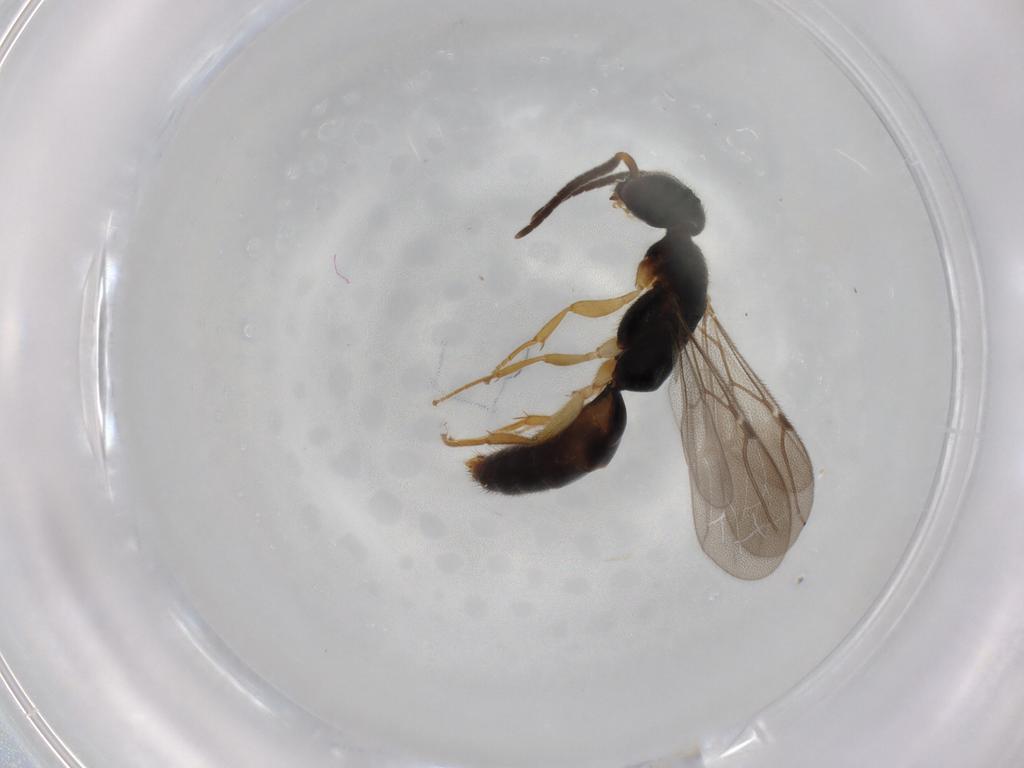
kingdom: Animalia
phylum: Arthropoda
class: Insecta
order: Hymenoptera
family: Bethylidae
